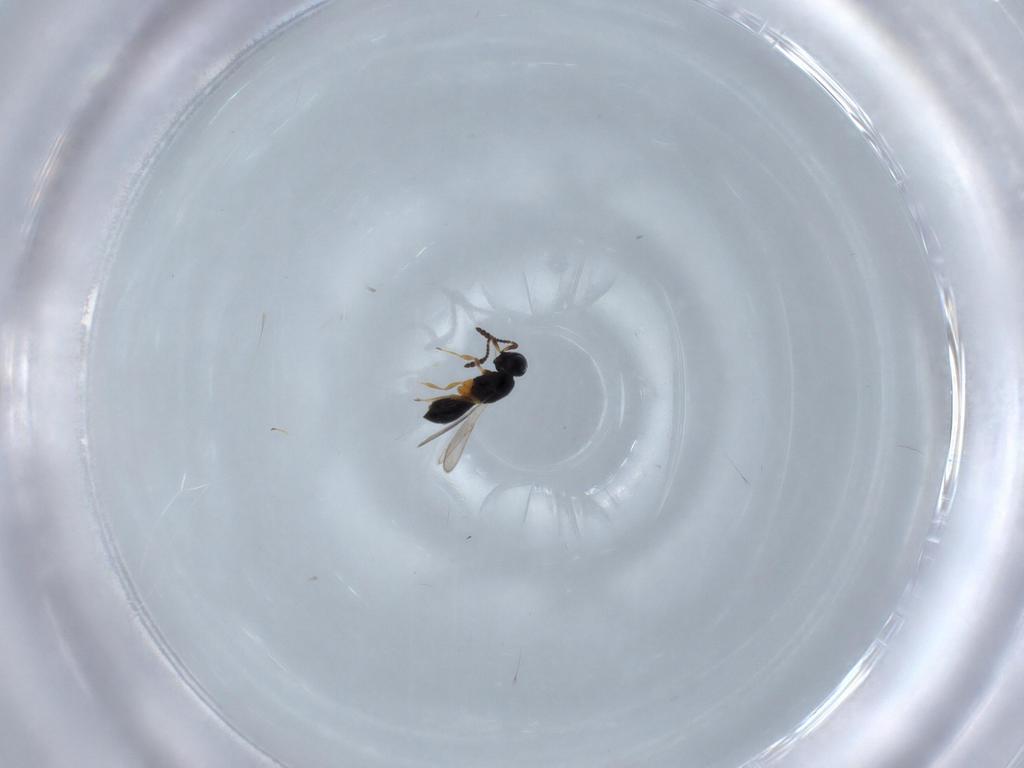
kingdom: Animalia
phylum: Arthropoda
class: Insecta
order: Hymenoptera
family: Scelionidae
